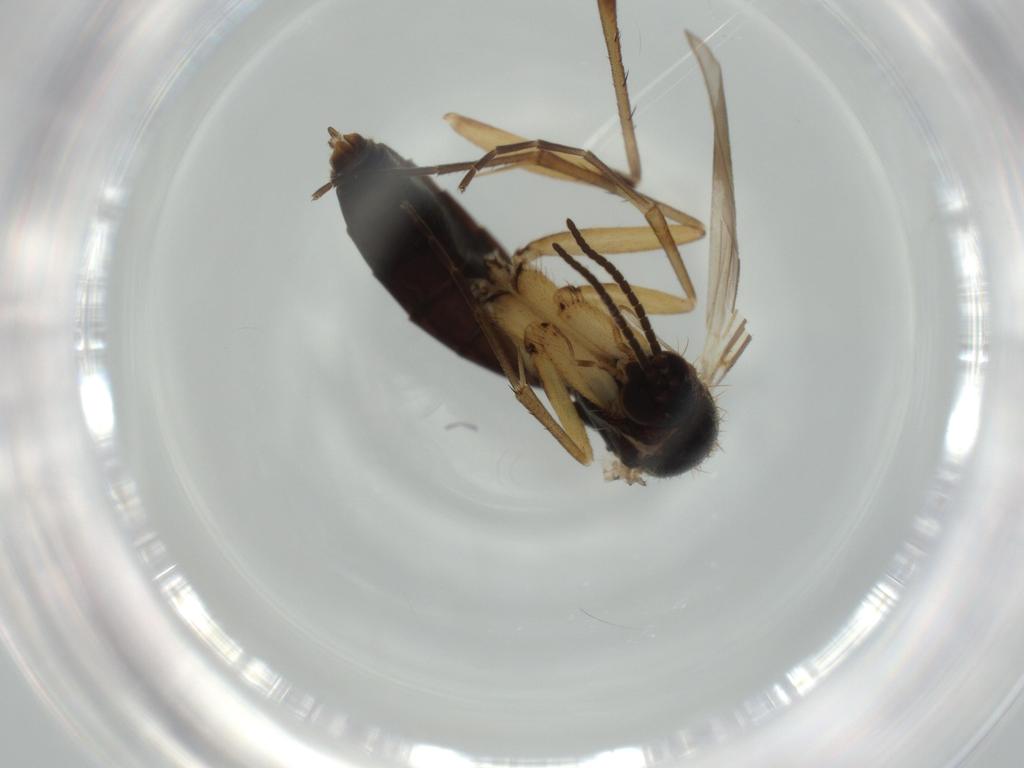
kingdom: Animalia
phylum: Arthropoda
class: Insecta
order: Diptera
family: Mycetophilidae
